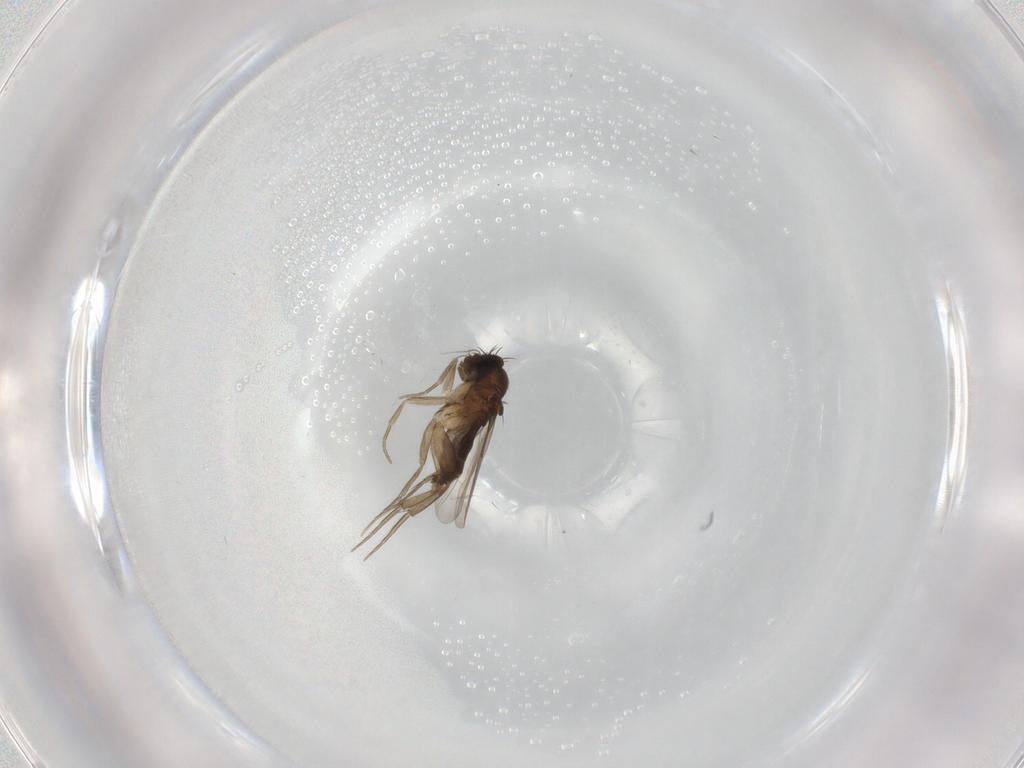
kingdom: Animalia
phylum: Arthropoda
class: Insecta
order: Diptera
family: Phoridae
